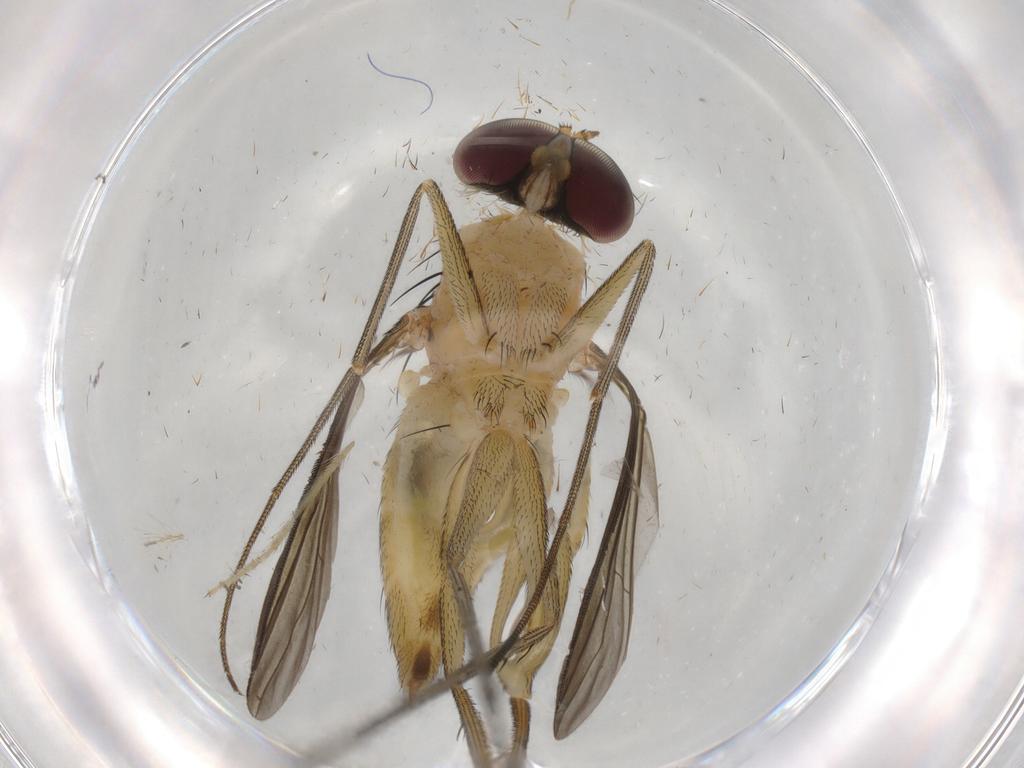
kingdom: Animalia
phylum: Arthropoda
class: Insecta
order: Diptera
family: Dolichopodidae
